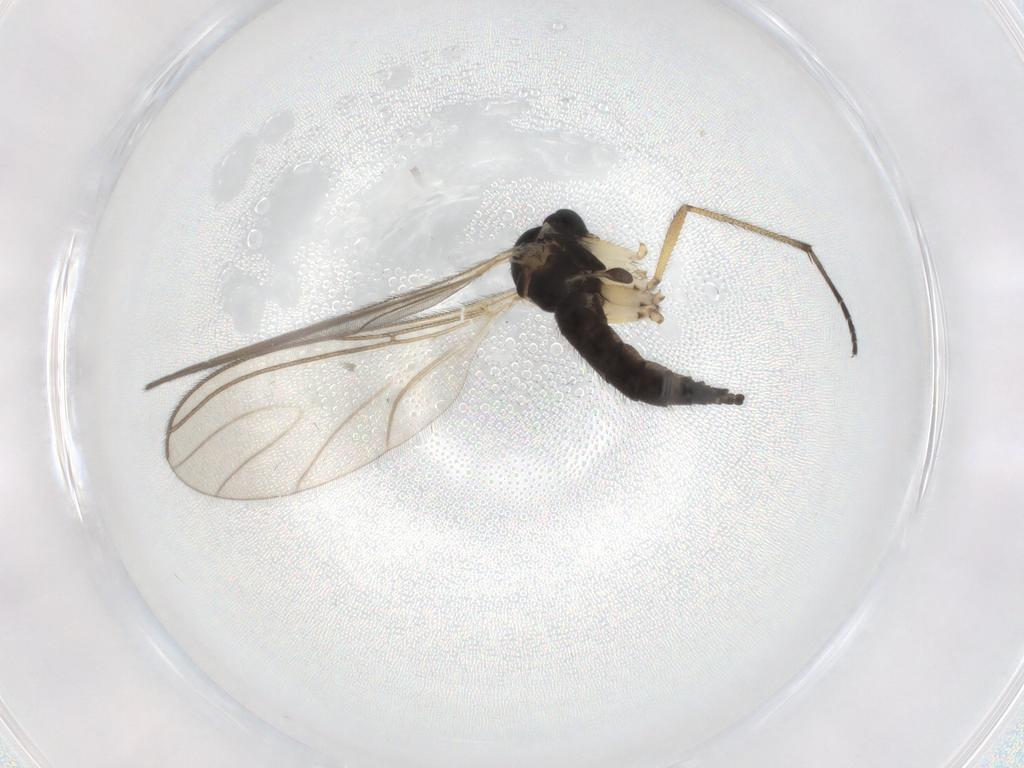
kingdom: Animalia
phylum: Arthropoda
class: Insecta
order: Diptera
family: Sciaridae
